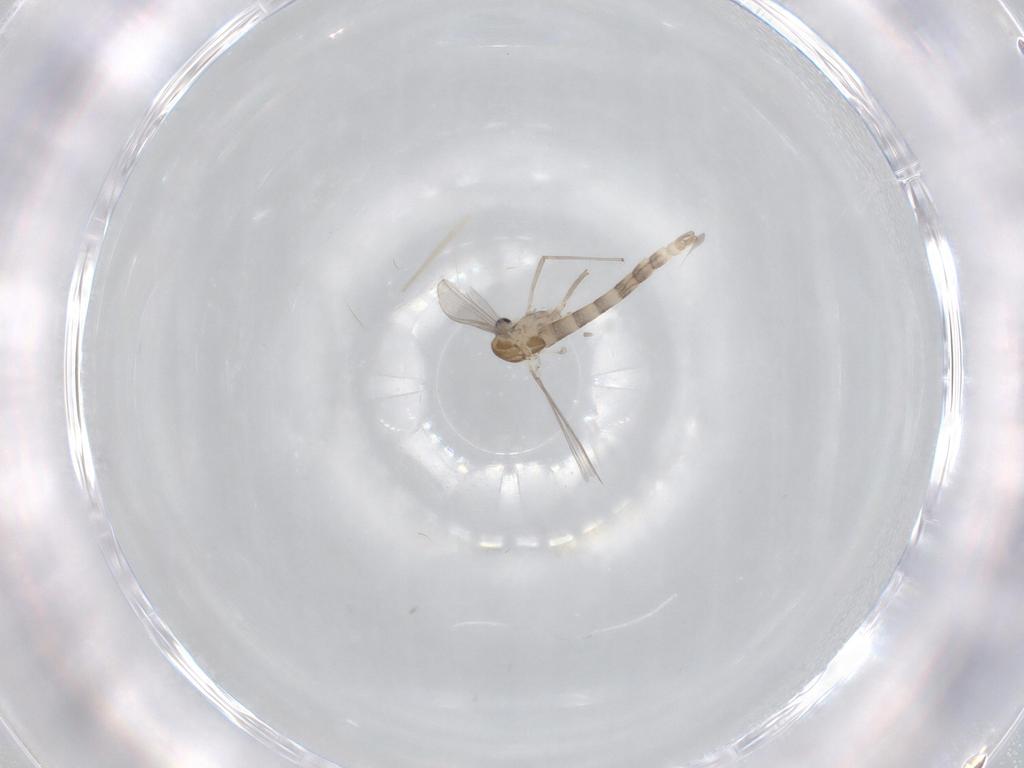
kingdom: Animalia
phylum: Arthropoda
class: Insecta
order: Diptera
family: Chironomidae
